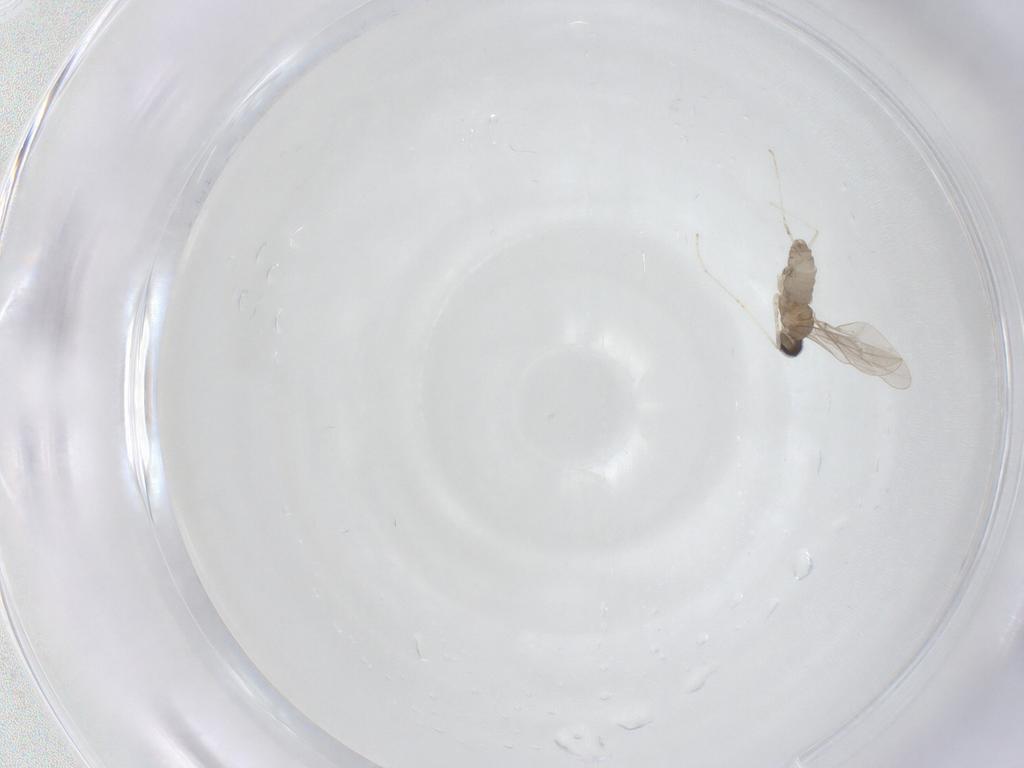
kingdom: Animalia
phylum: Arthropoda
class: Insecta
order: Diptera
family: Cecidomyiidae
